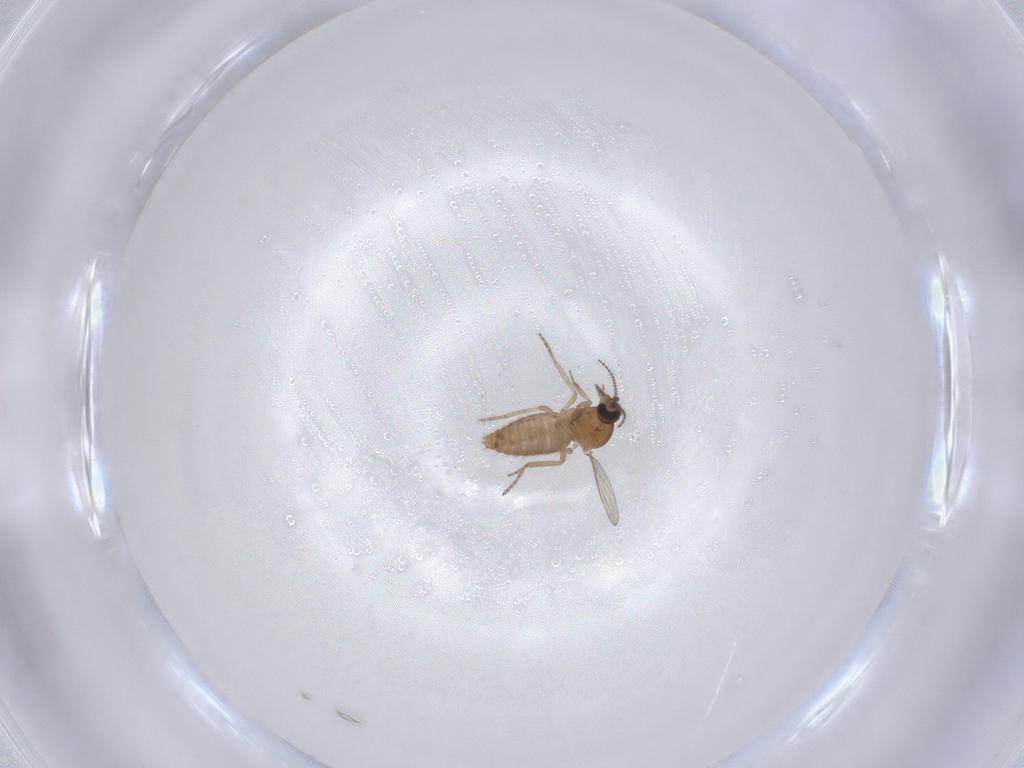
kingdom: Animalia
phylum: Arthropoda
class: Insecta
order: Diptera
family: Ceratopogonidae
